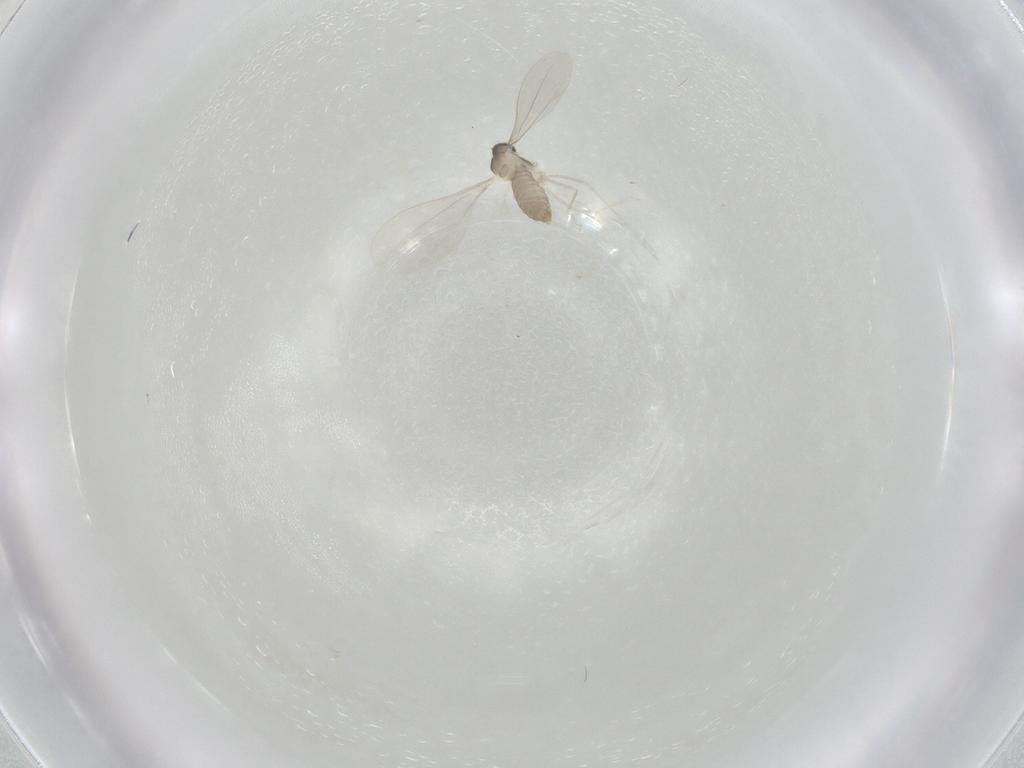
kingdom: Animalia
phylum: Arthropoda
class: Insecta
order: Diptera
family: Cecidomyiidae
